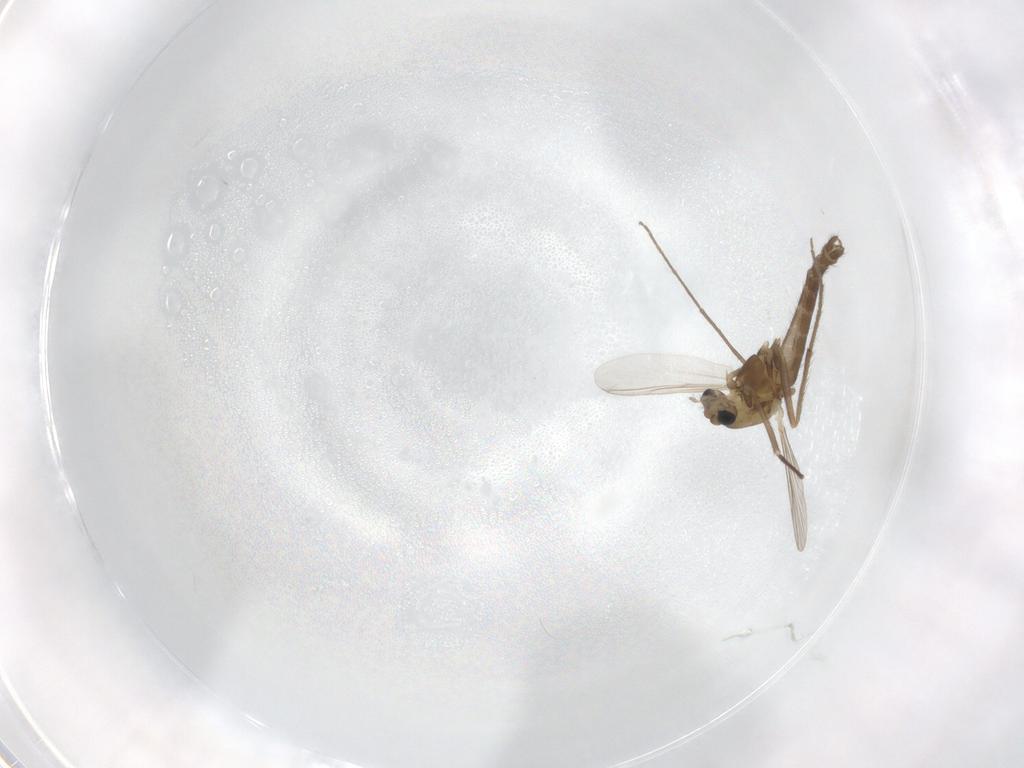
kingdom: Animalia
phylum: Arthropoda
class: Insecta
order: Diptera
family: Chironomidae
